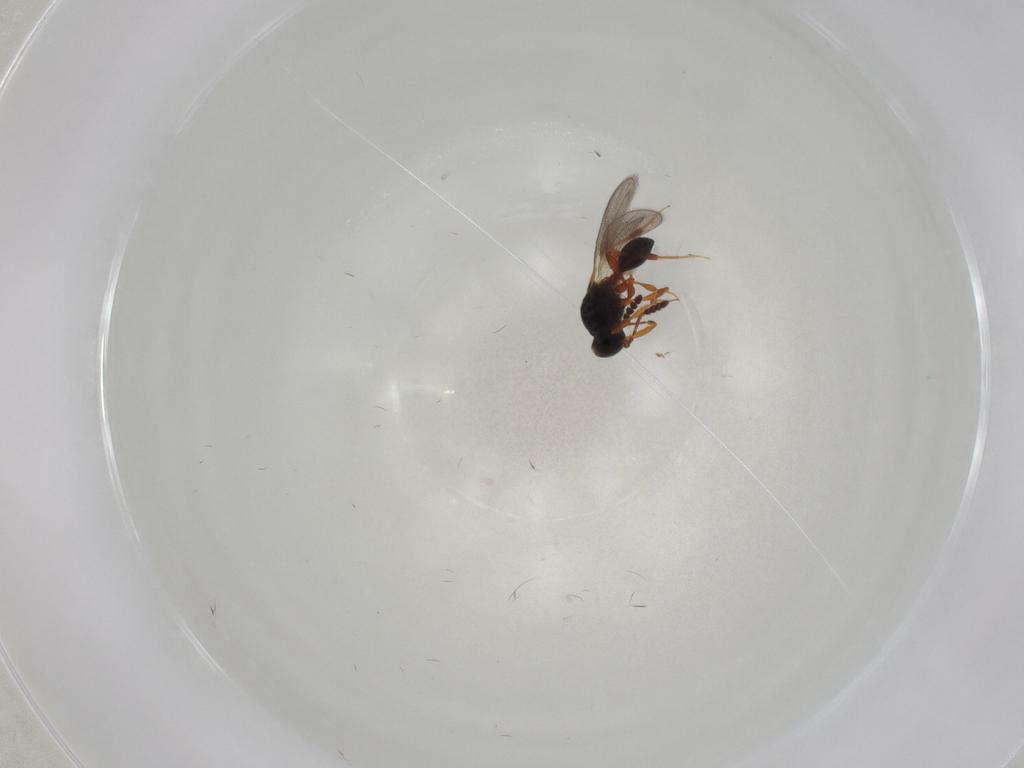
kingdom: Animalia
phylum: Arthropoda
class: Insecta
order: Hymenoptera
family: Platygastridae
